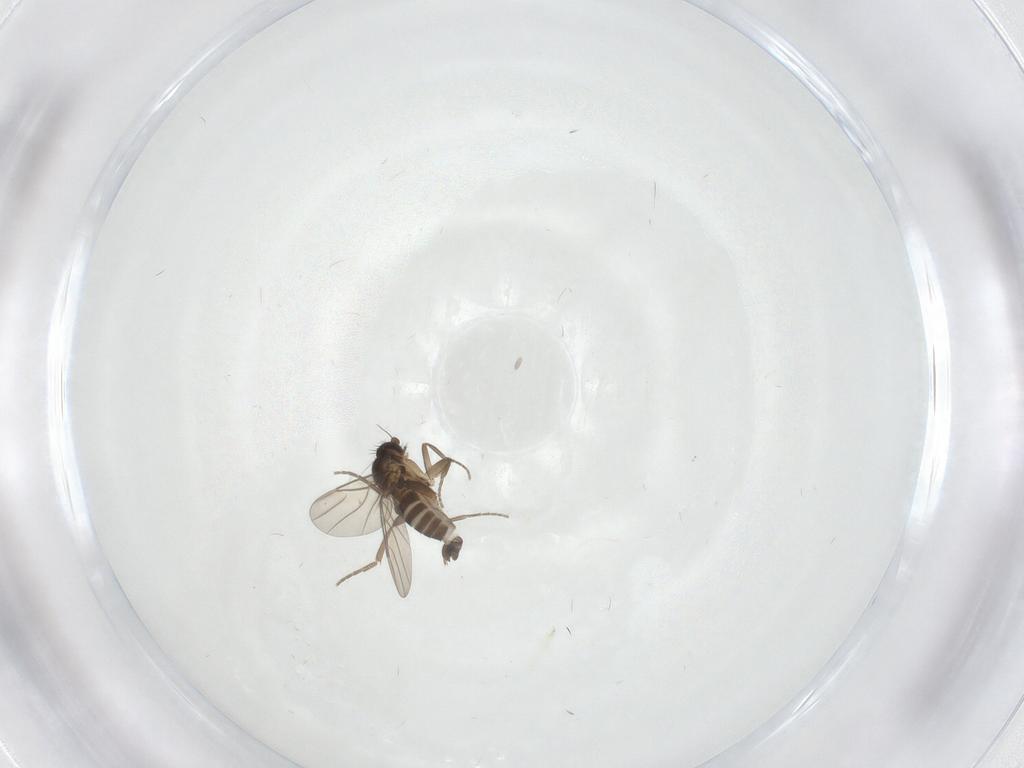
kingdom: Animalia
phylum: Arthropoda
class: Insecta
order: Diptera
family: Phoridae
